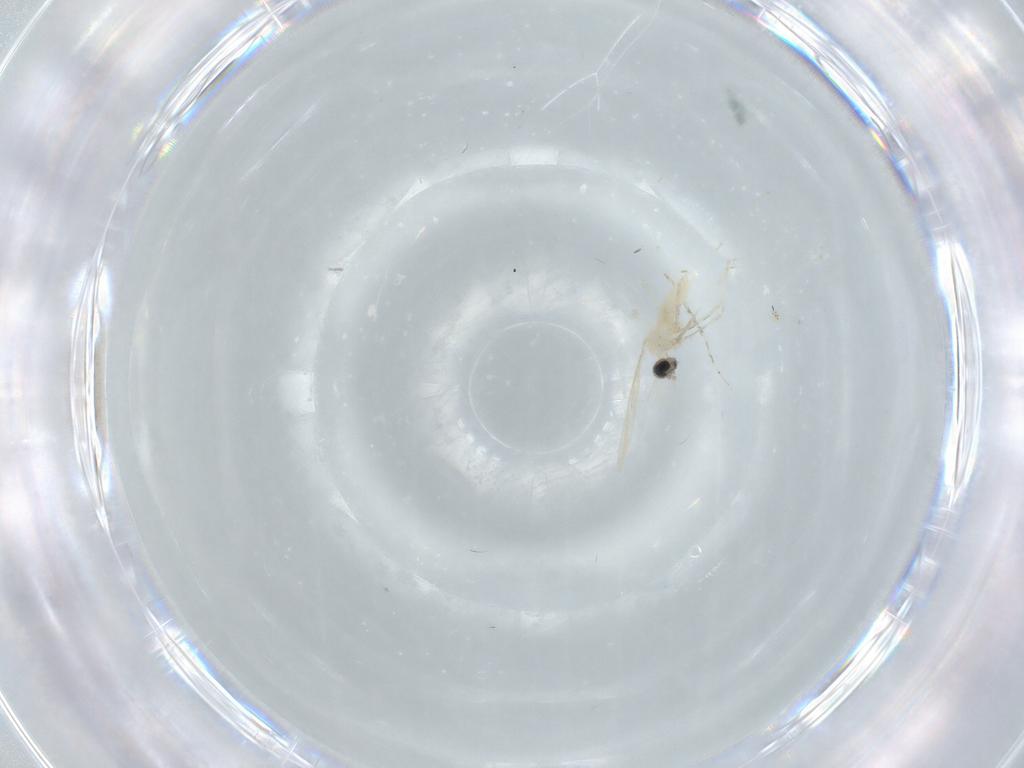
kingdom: Animalia
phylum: Arthropoda
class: Insecta
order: Diptera
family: Cecidomyiidae
